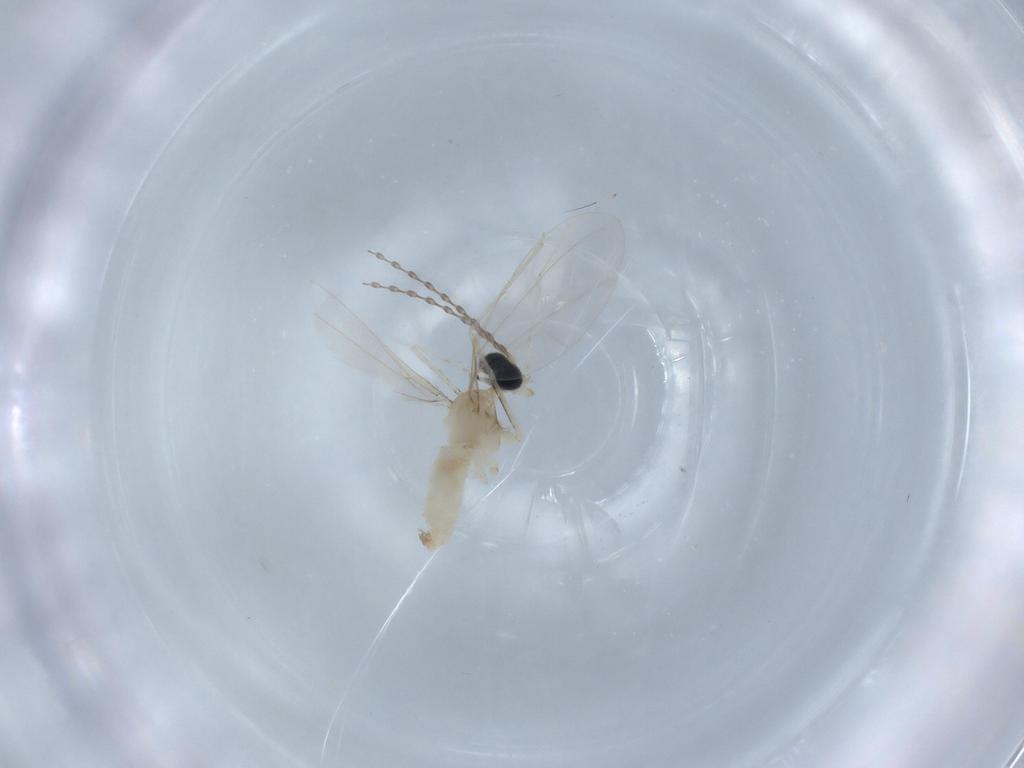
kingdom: Animalia
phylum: Arthropoda
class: Insecta
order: Diptera
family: Cecidomyiidae
